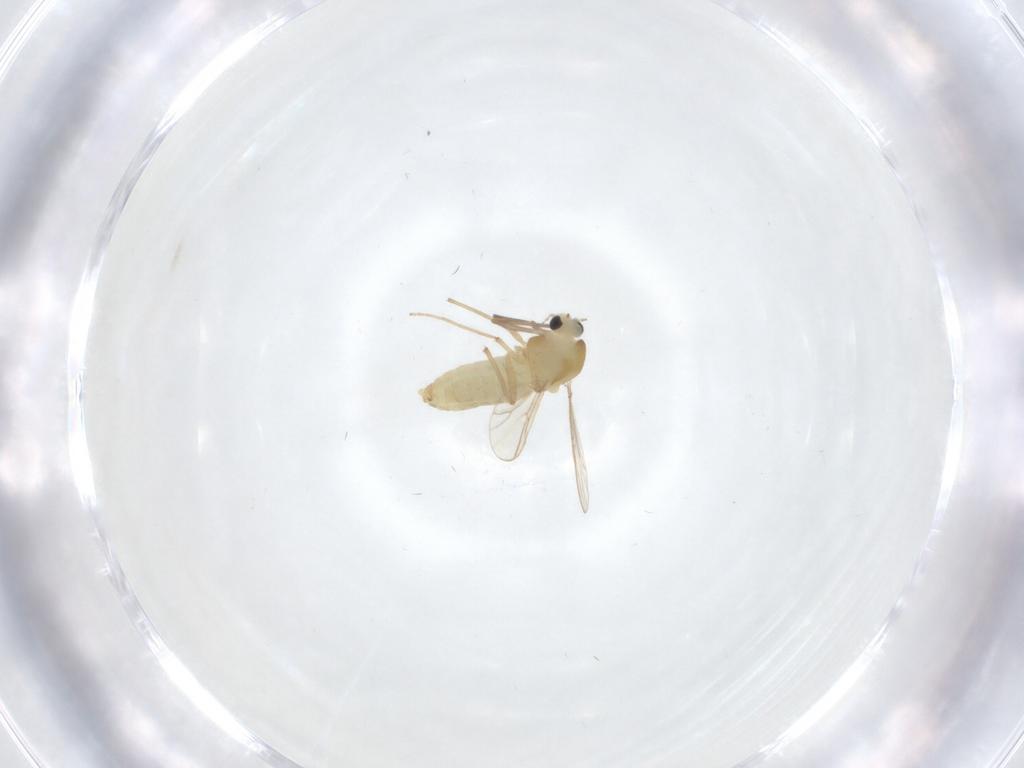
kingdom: Animalia
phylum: Arthropoda
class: Insecta
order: Diptera
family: Chironomidae
